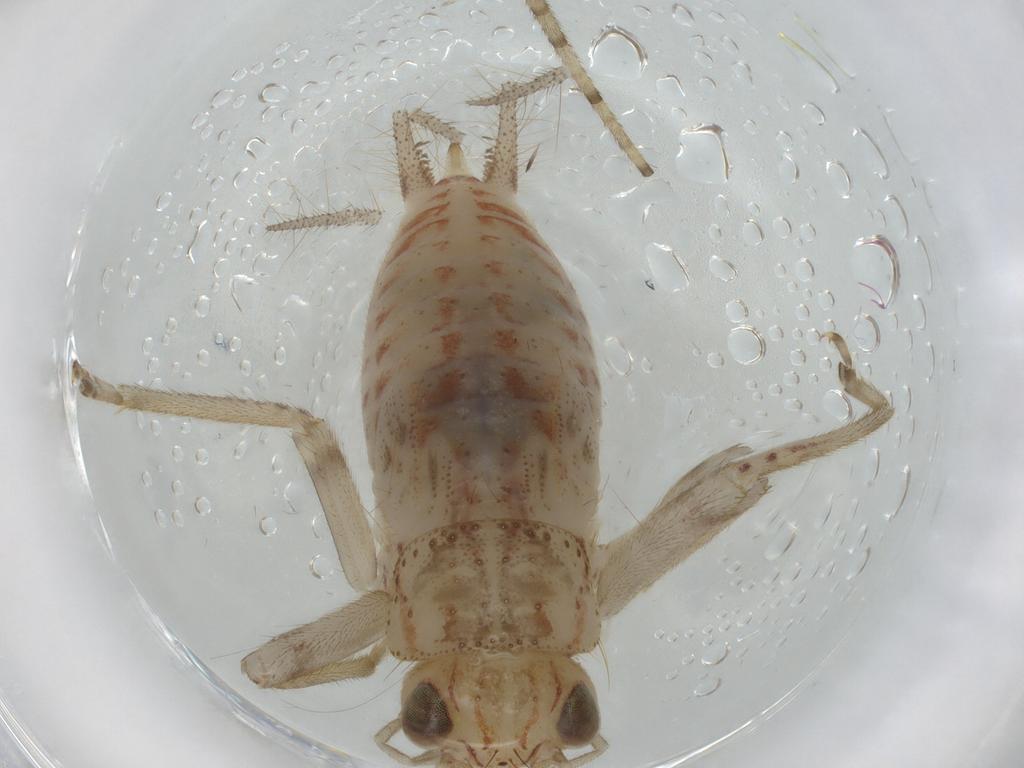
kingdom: Animalia
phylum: Arthropoda
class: Insecta
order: Orthoptera
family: Trigonidiidae
